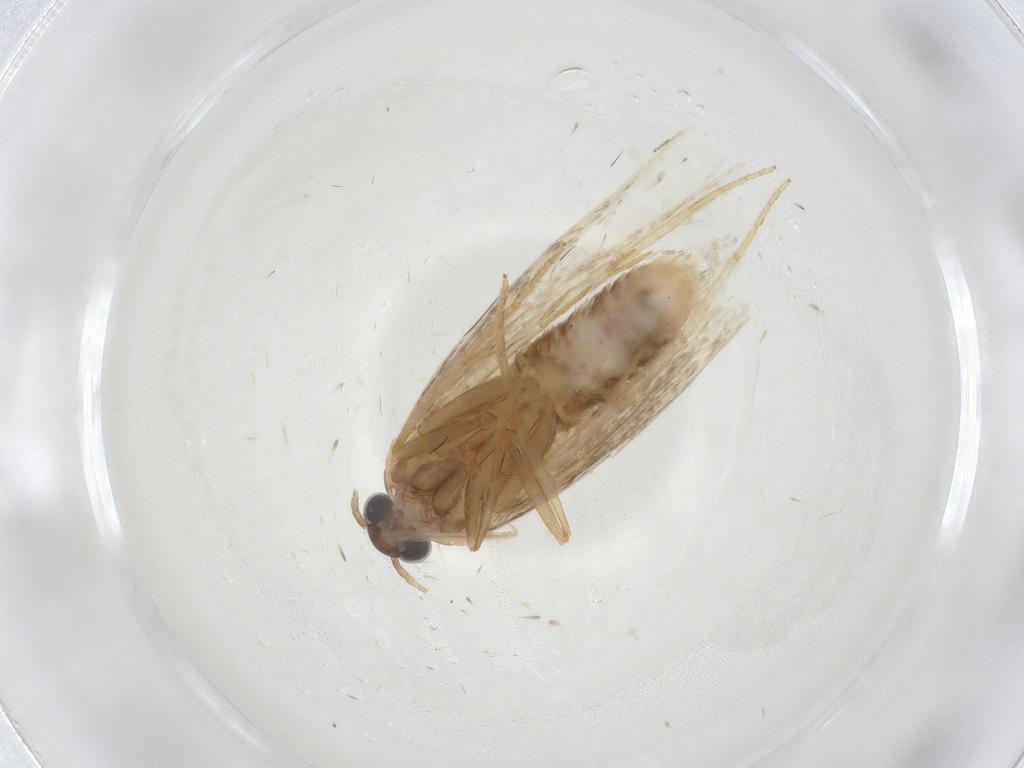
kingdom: Animalia
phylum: Arthropoda
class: Insecta
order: Lepidoptera
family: Autostichidae
